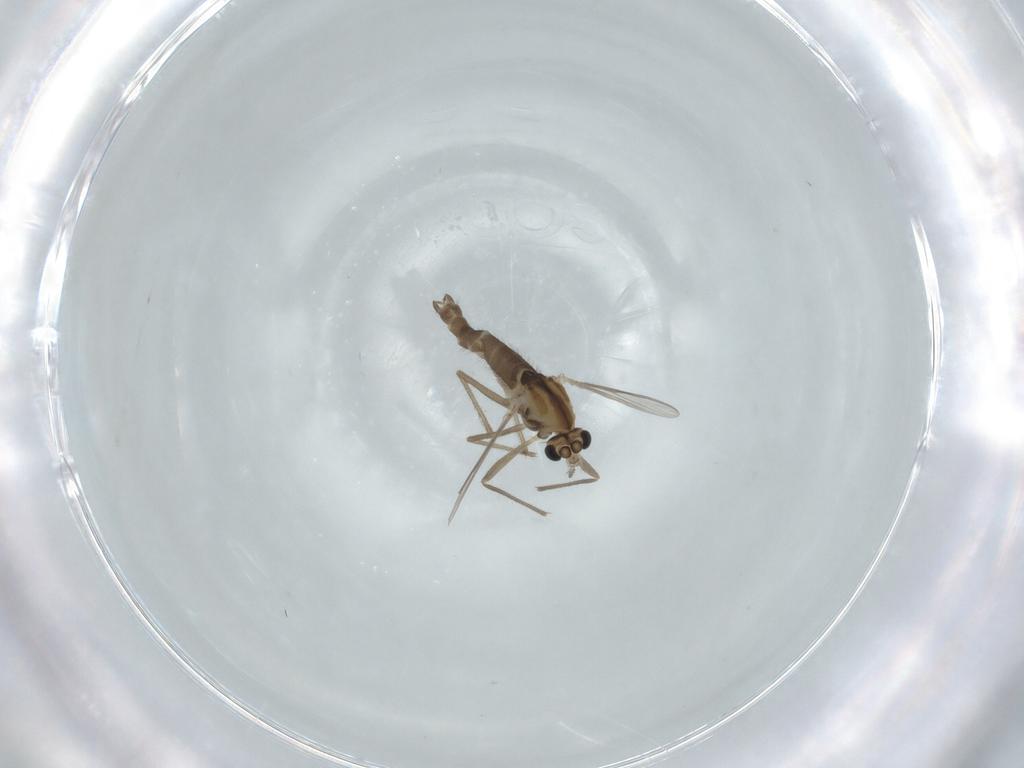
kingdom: Animalia
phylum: Arthropoda
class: Insecta
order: Diptera
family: Chironomidae
